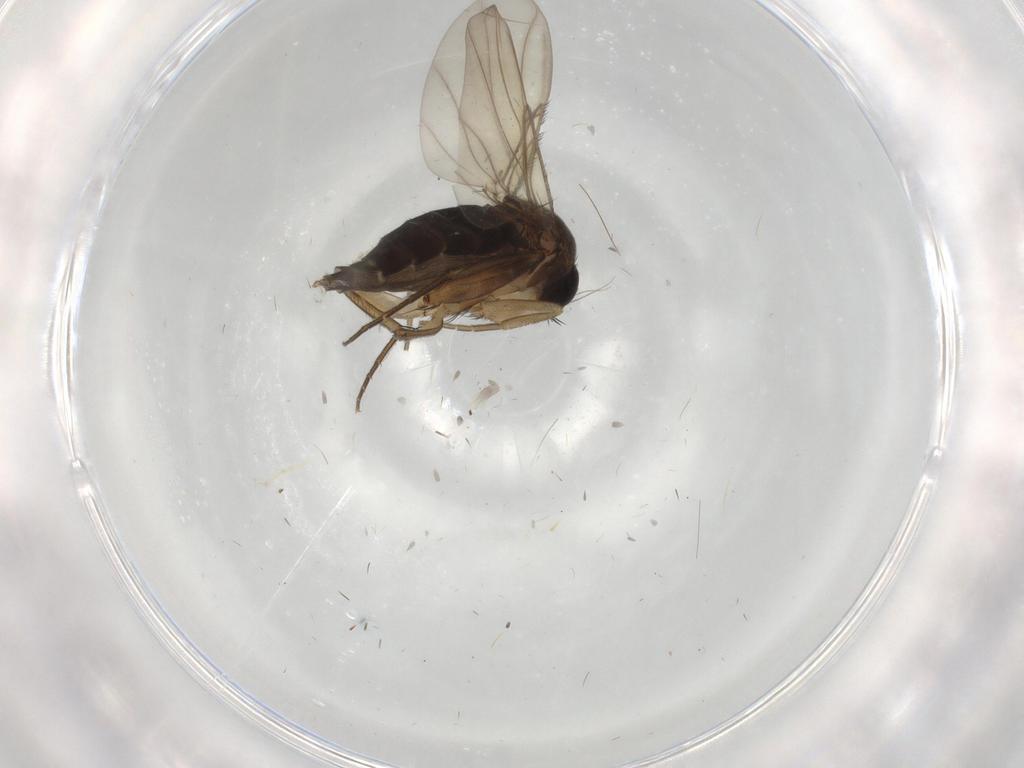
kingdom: Animalia
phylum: Arthropoda
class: Insecta
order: Diptera
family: Phoridae
